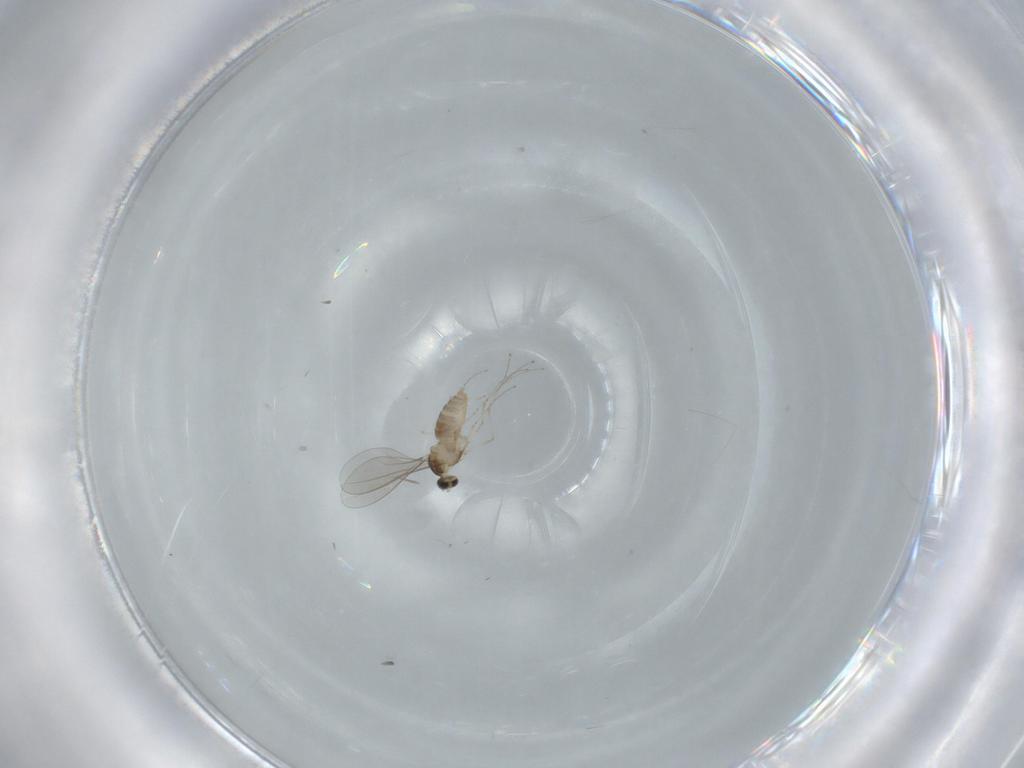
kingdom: Animalia
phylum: Arthropoda
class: Insecta
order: Diptera
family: Cecidomyiidae
